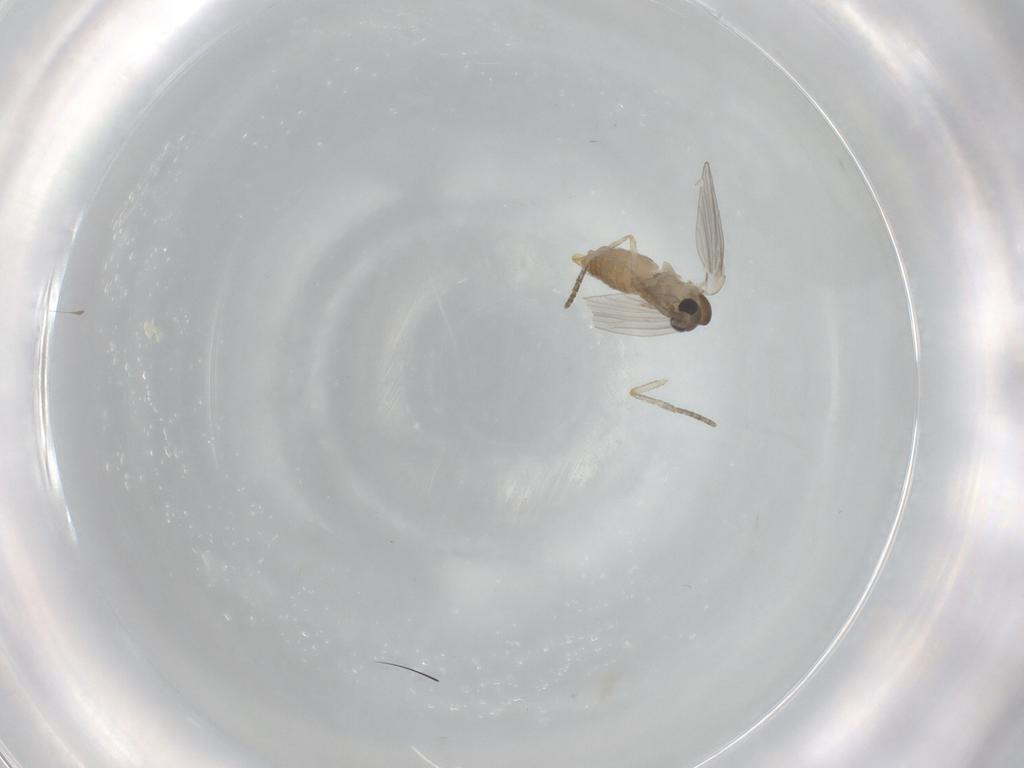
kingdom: Animalia
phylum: Arthropoda
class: Insecta
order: Diptera
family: Psychodidae
